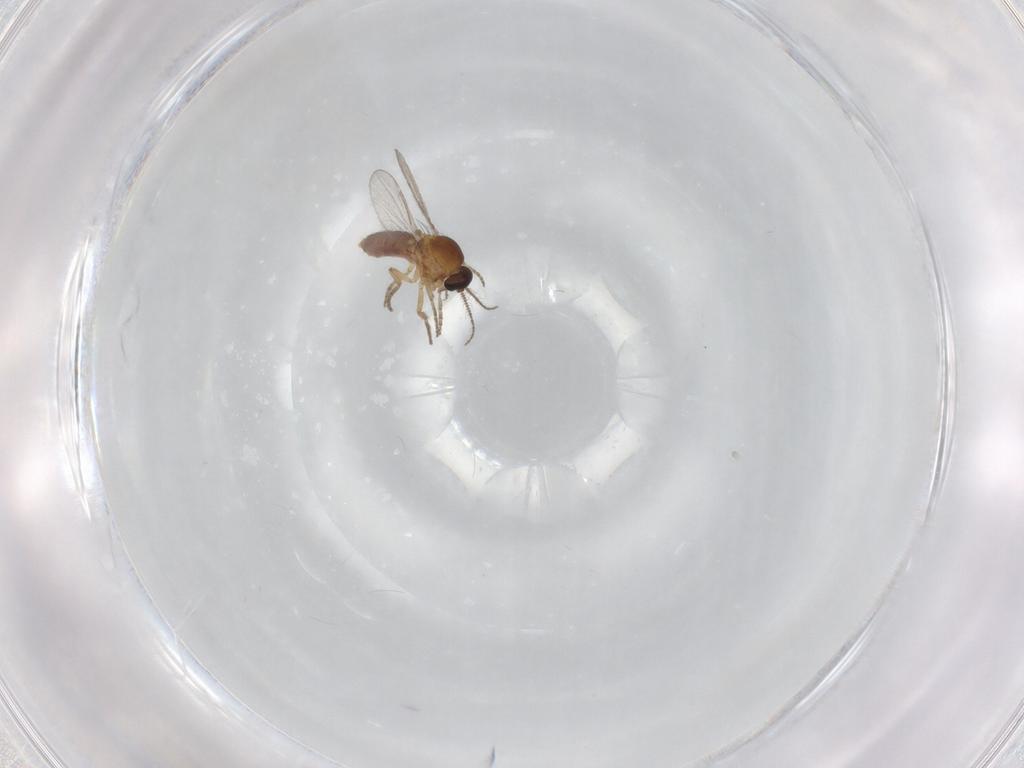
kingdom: Animalia
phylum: Arthropoda
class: Insecta
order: Diptera
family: Ceratopogonidae
